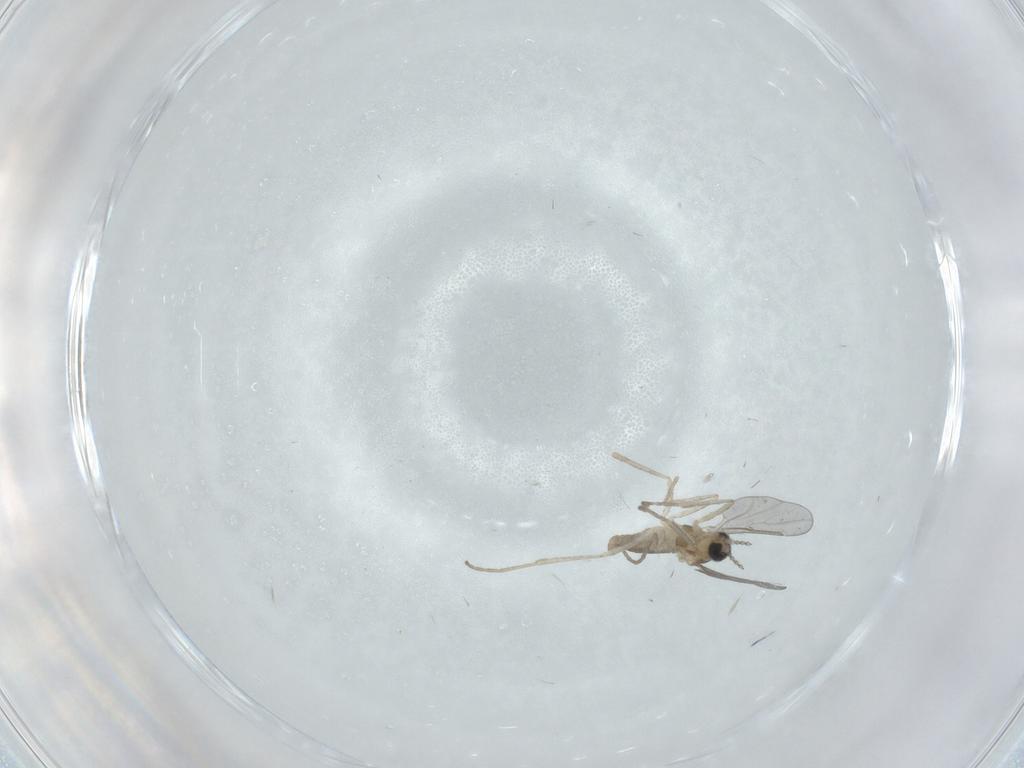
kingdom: Animalia
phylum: Arthropoda
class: Insecta
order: Diptera
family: Cecidomyiidae
